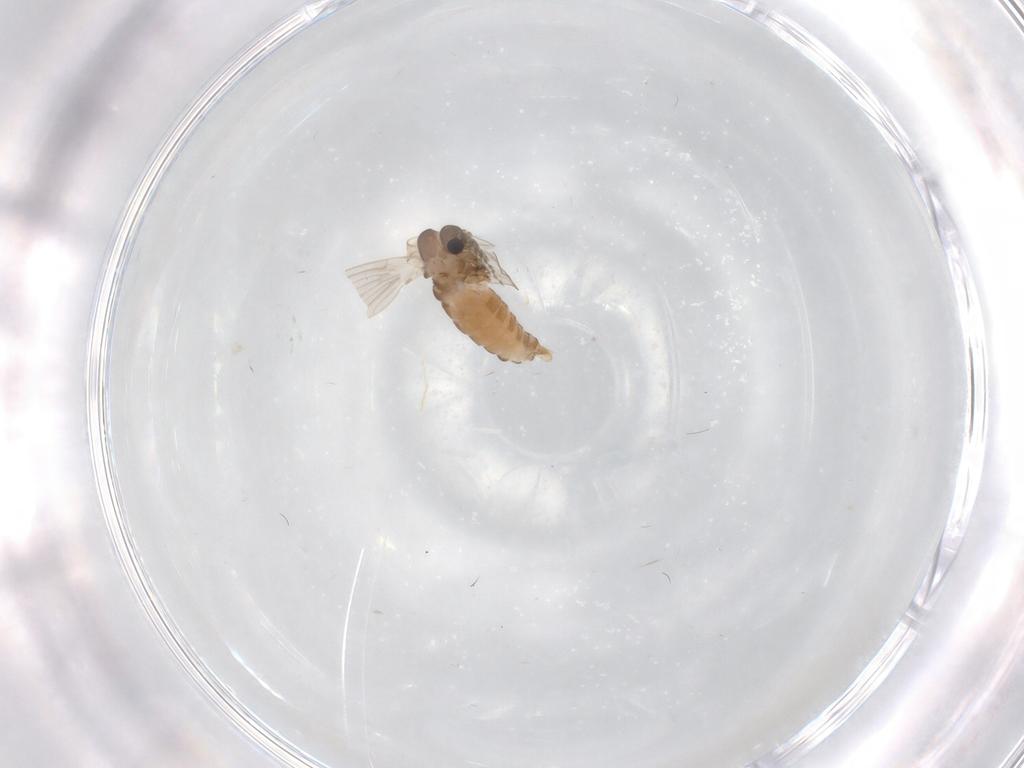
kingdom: Animalia
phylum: Arthropoda
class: Insecta
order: Diptera
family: Psychodidae
